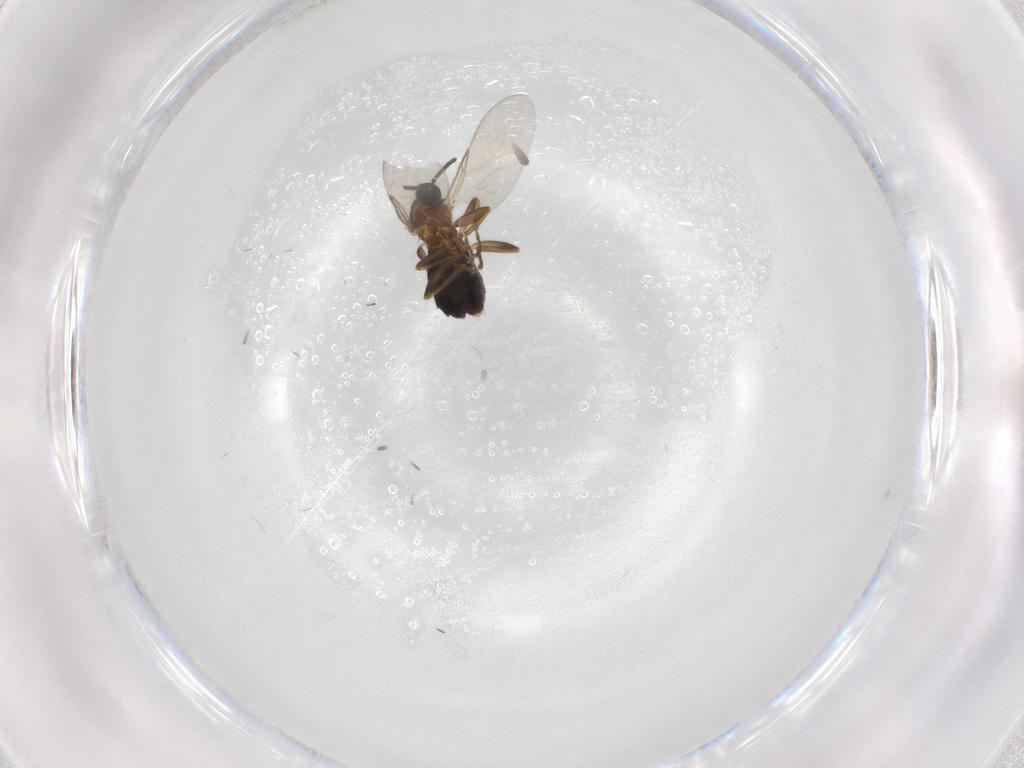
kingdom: Animalia
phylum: Arthropoda
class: Insecta
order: Diptera
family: Scatopsidae
